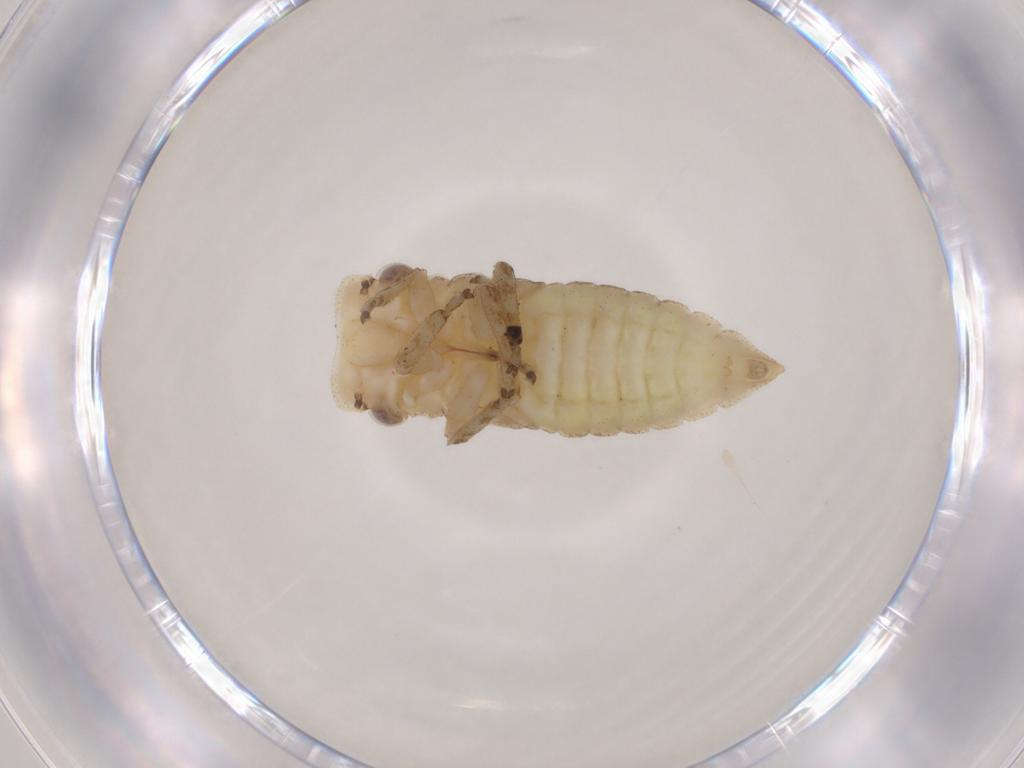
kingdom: Animalia
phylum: Arthropoda
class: Insecta
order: Hemiptera
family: Cicadellidae
